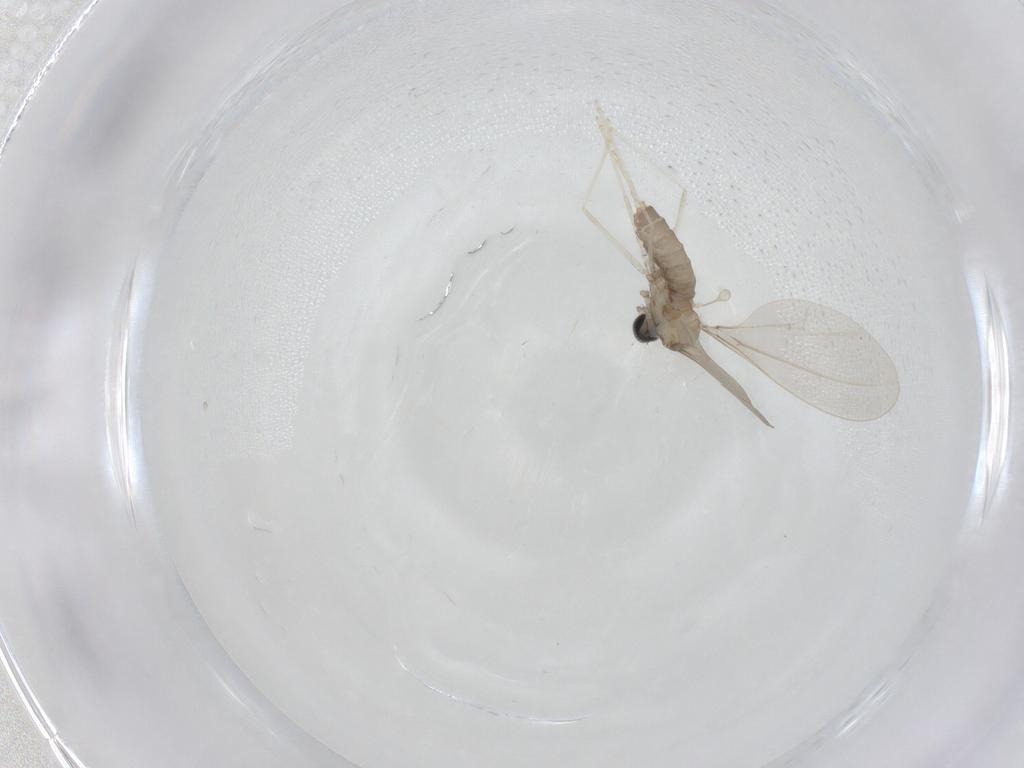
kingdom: Animalia
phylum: Arthropoda
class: Insecta
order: Diptera
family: Cecidomyiidae
